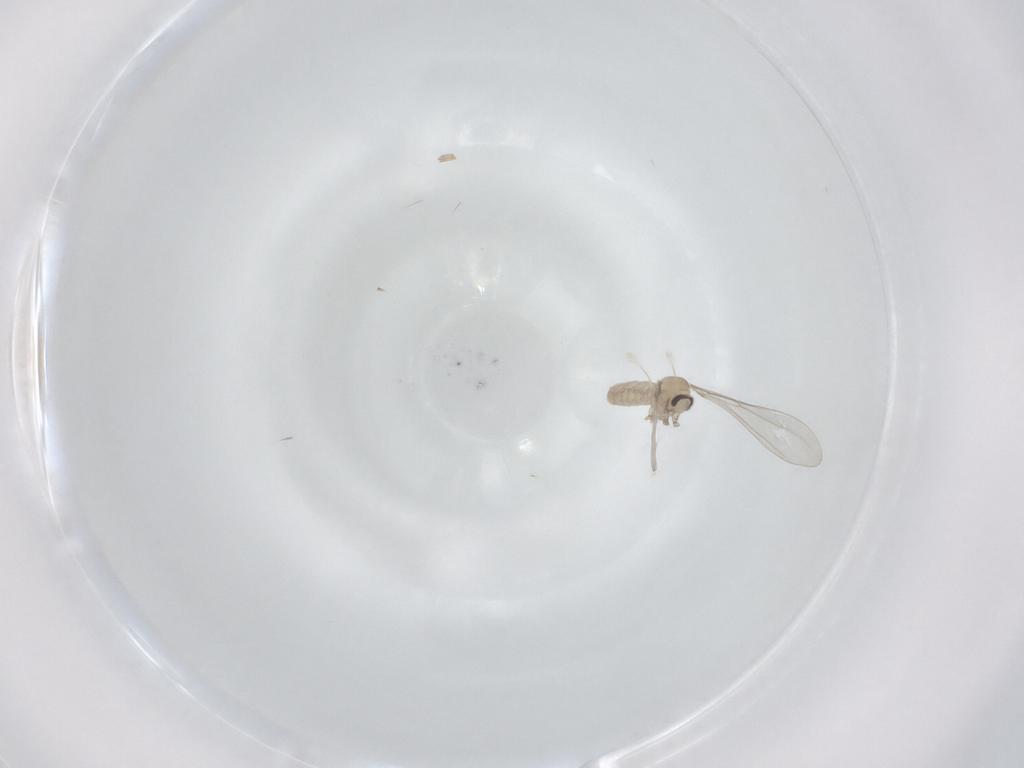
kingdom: Animalia
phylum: Arthropoda
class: Insecta
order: Diptera
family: Cecidomyiidae
